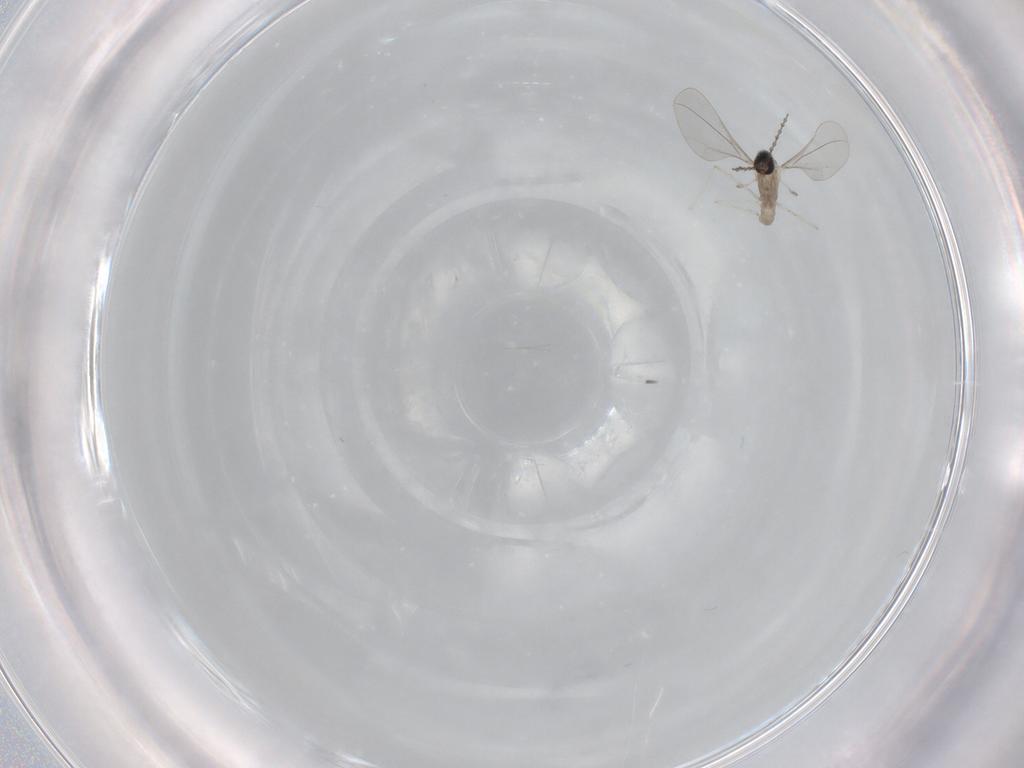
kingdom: Animalia
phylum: Arthropoda
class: Insecta
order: Diptera
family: Cecidomyiidae
